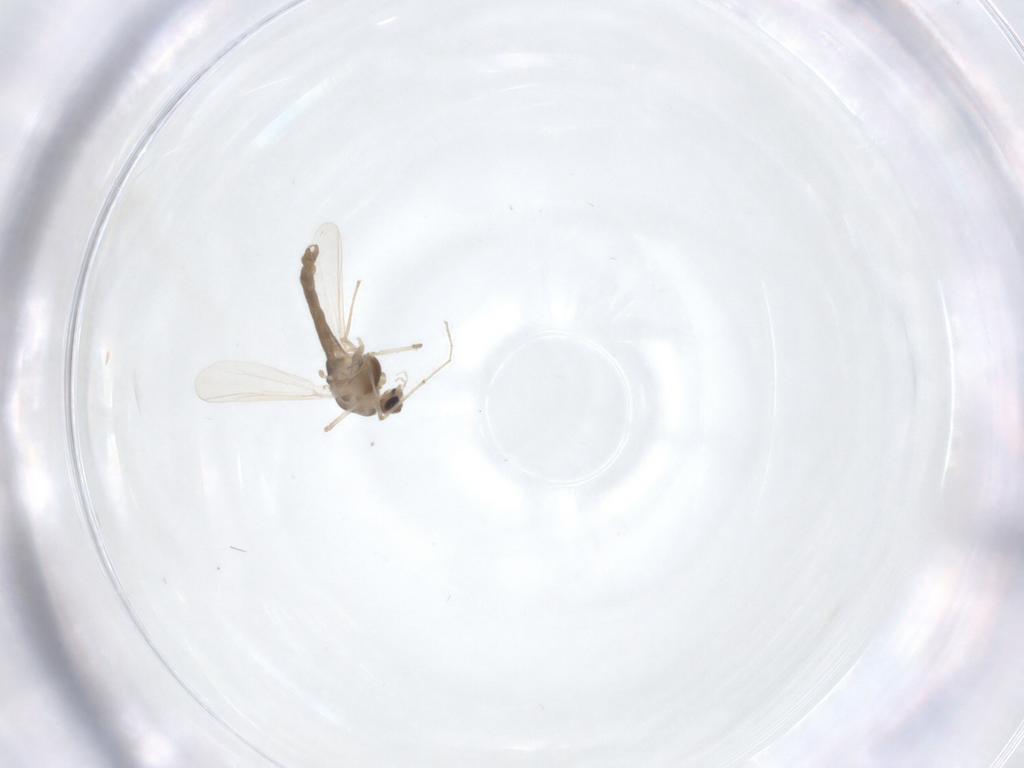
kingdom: Animalia
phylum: Arthropoda
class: Insecta
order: Diptera
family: Chironomidae
